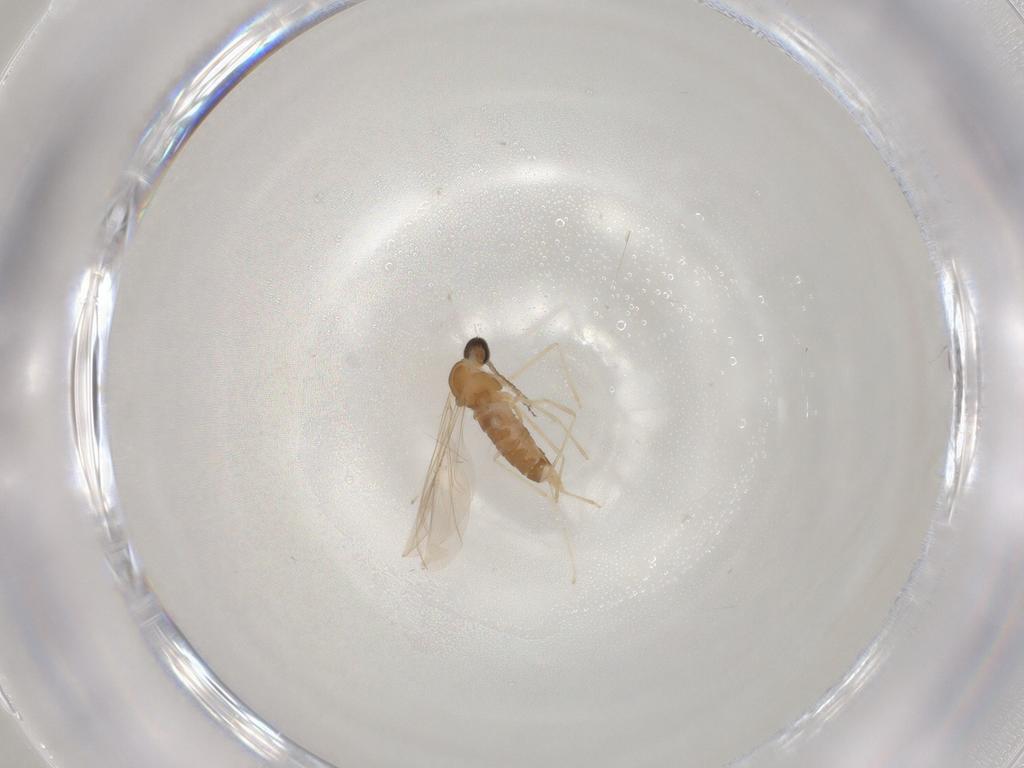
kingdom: Animalia
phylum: Arthropoda
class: Insecta
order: Diptera
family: Cecidomyiidae
